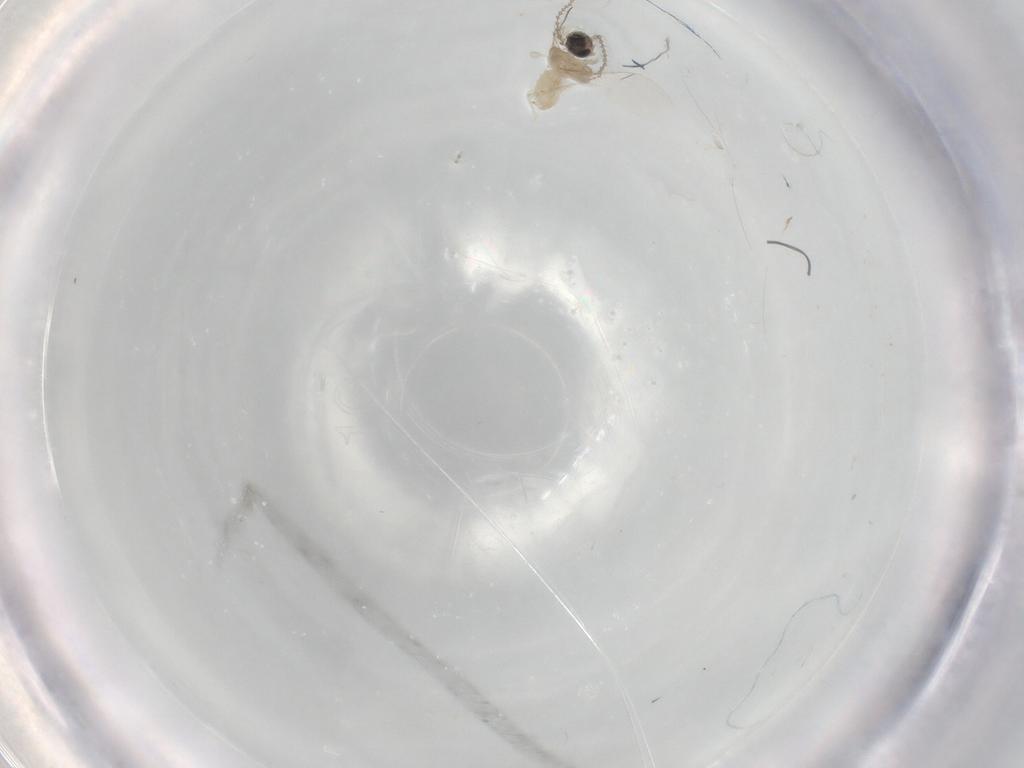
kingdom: Animalia
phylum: Arthropoda
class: Insecta
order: Diptera
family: Cecidomyiidae
